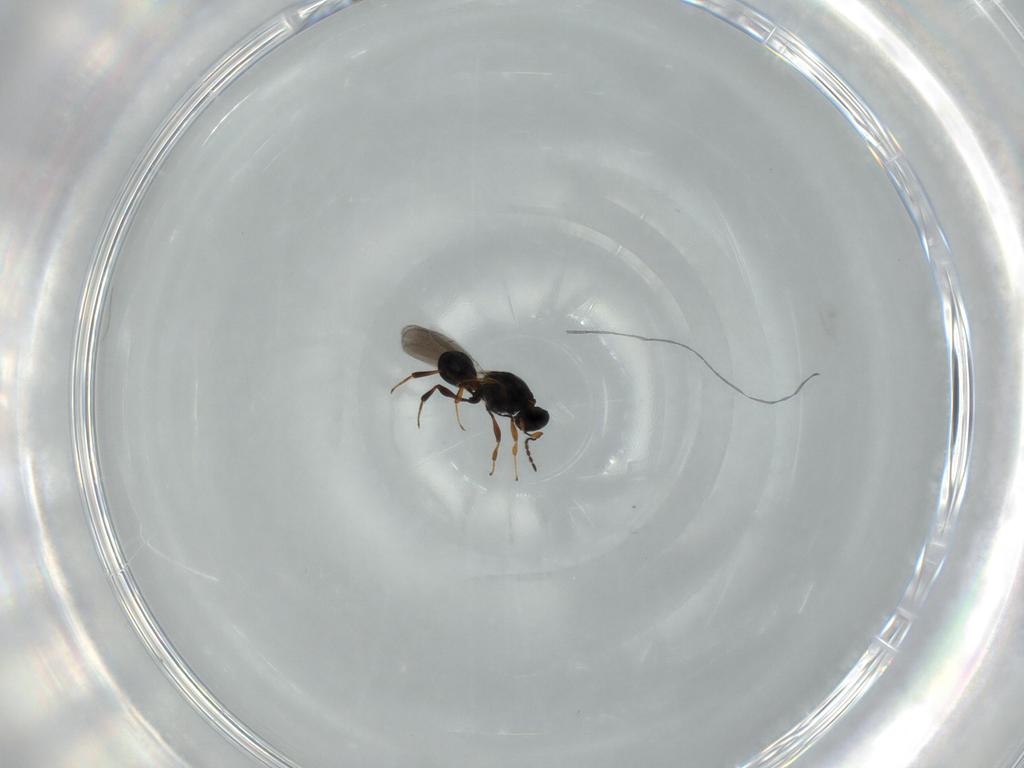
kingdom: Animalia
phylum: Arthropoda
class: Insecta
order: Hymenoptera
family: Platygastridae
